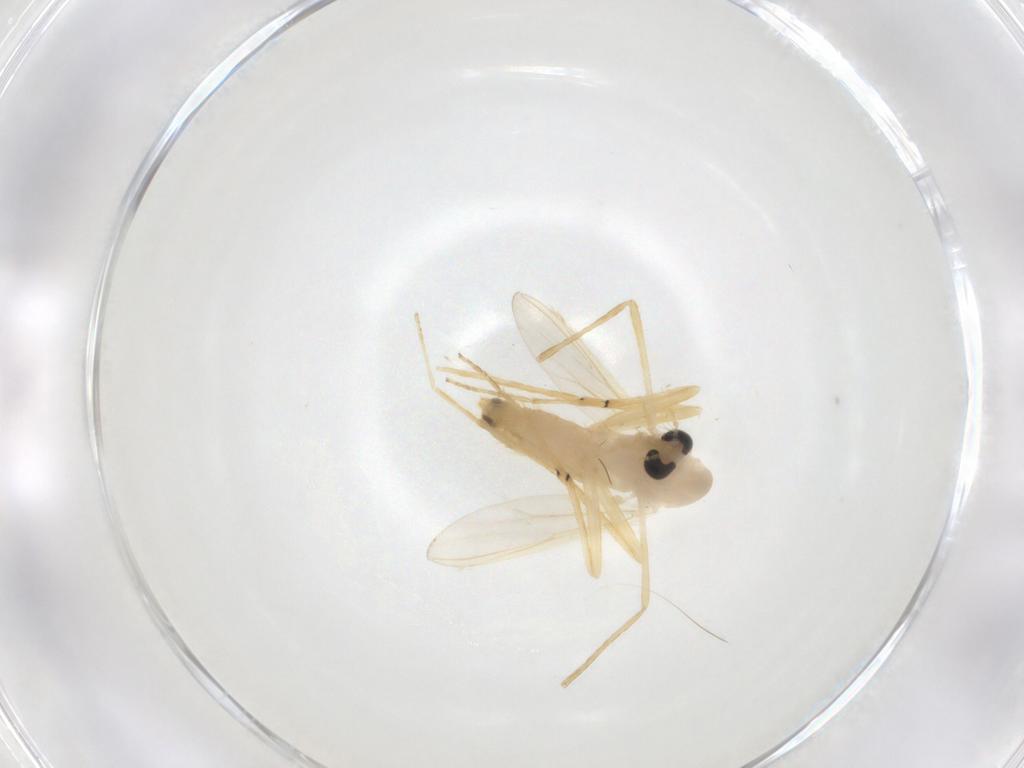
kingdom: Animalia
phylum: Arthropoda
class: Insecta
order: Diptera
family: Chironomidae
